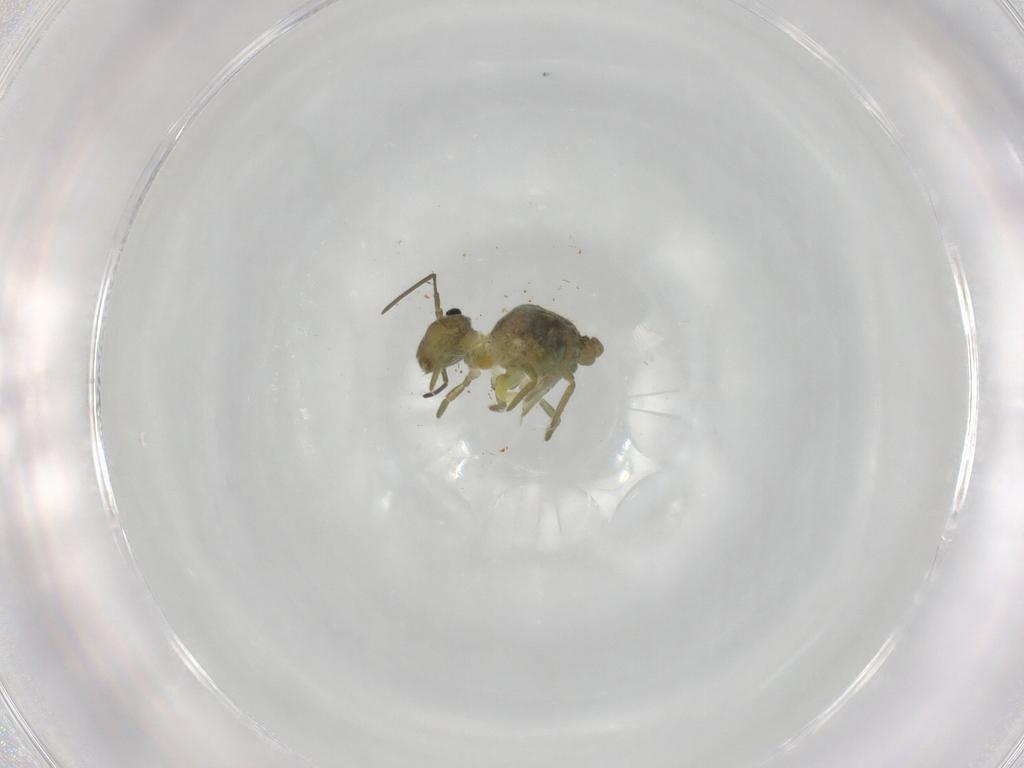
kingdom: Animalia
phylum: Arthropoda
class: Collembola
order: Symphypleona
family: Sminthuridae
